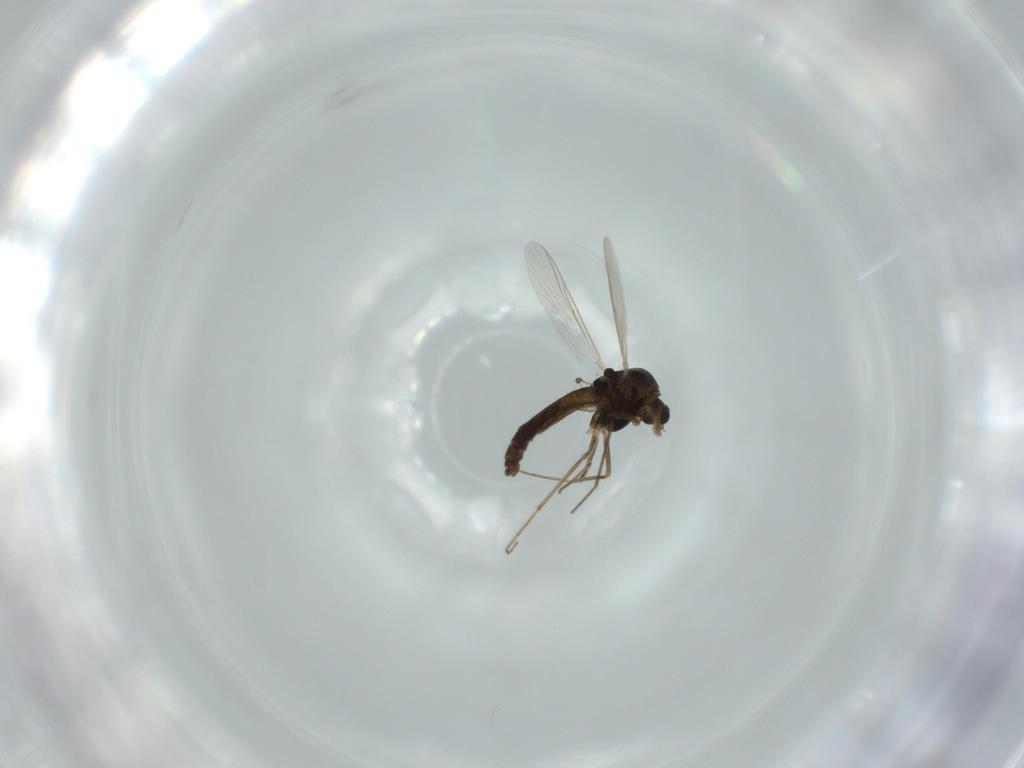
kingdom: Animalia
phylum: Arthropoda
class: Insecta
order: Diptera
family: Chironomidae
